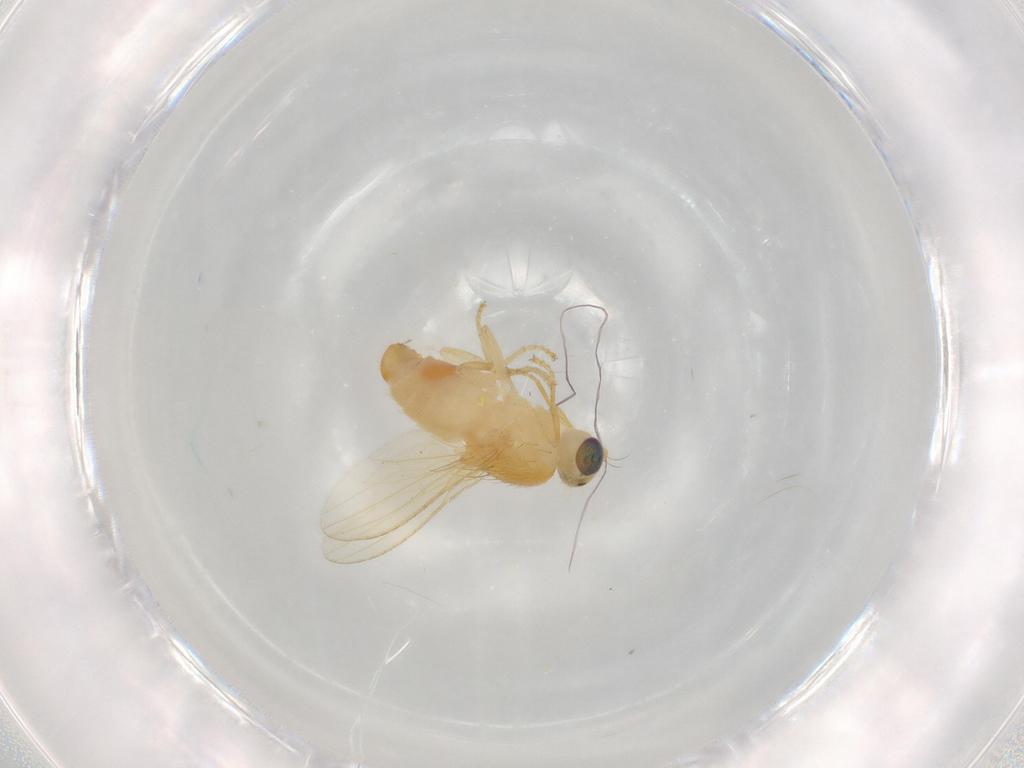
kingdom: Animalia
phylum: Arthropoda
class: Insecta
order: Diptera
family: Chyromyidae
